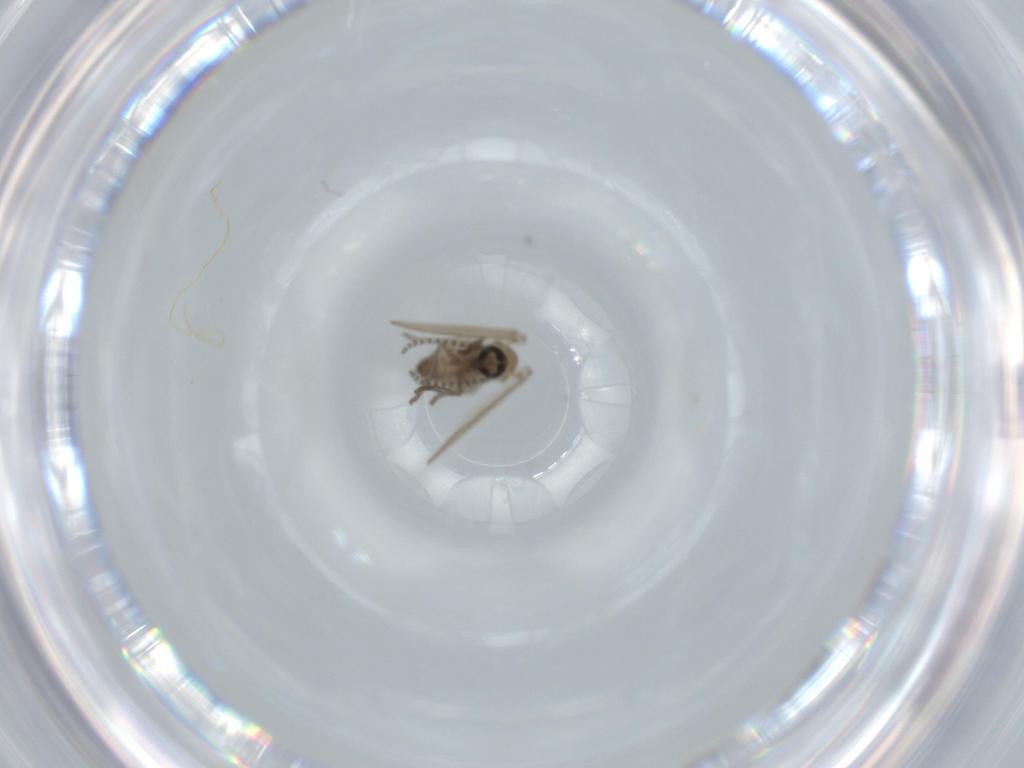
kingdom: Animalia
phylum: Arthropoda
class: Insecta
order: Diptera
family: Psychodidae
